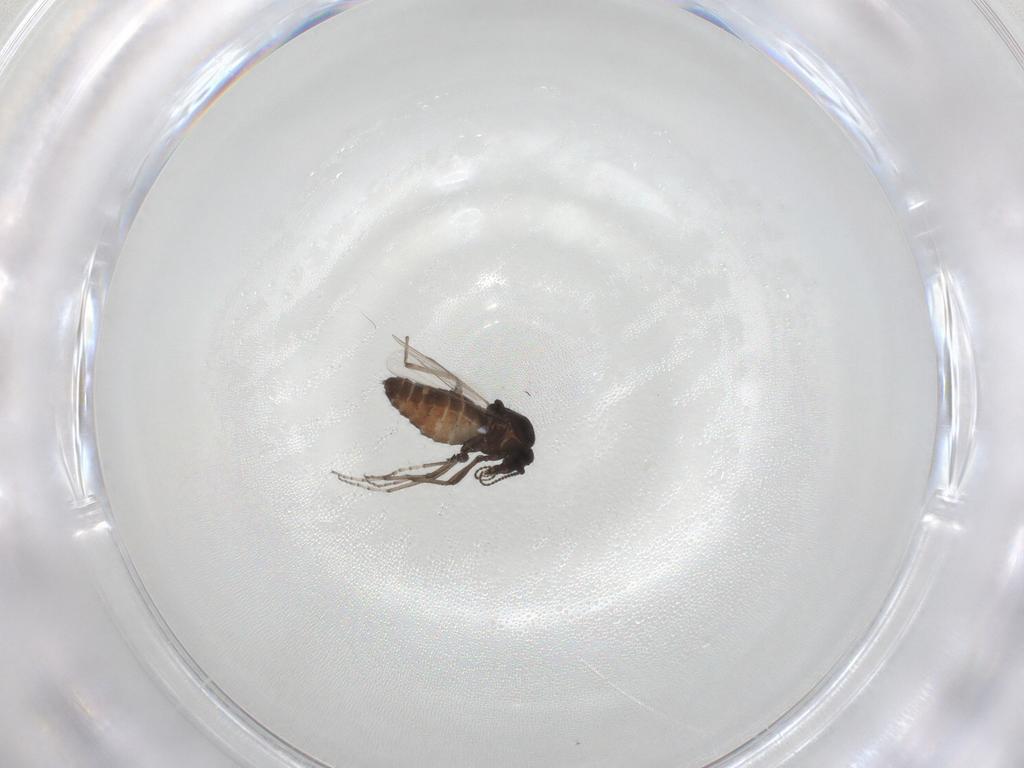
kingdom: Animalia
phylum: Arthropoda
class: Insecta
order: Diptera
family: Ceratopogonidae
